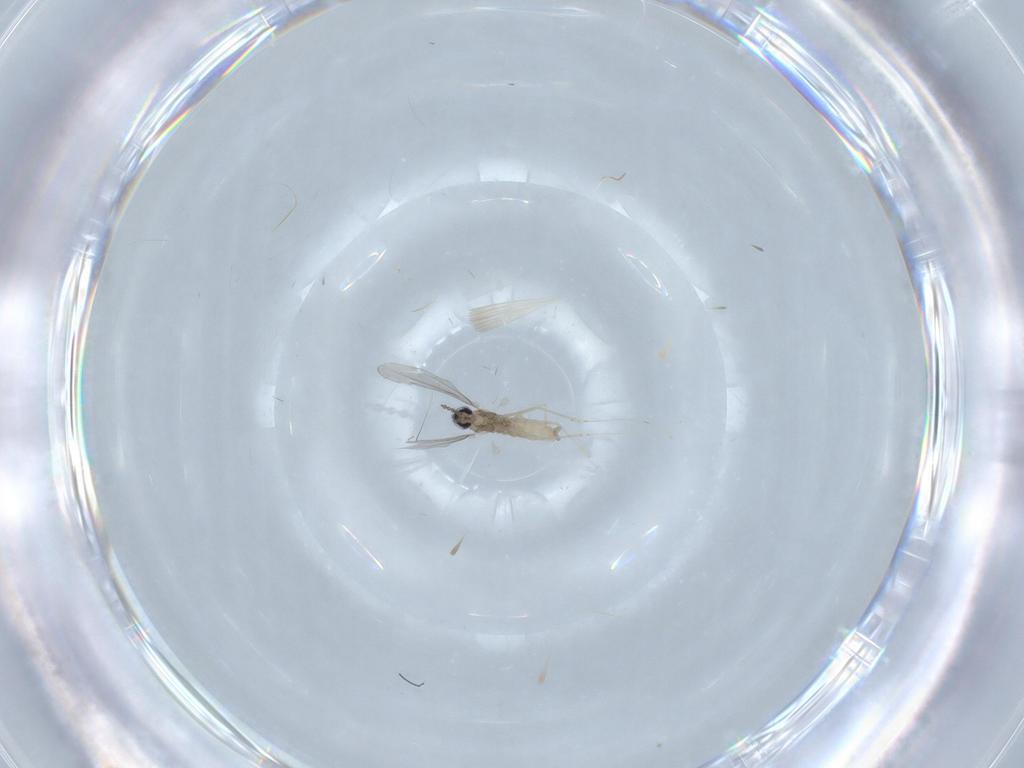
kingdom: Animalia
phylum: Arthropoda
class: Insecta
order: Diptera
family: Cecidomyiidae
